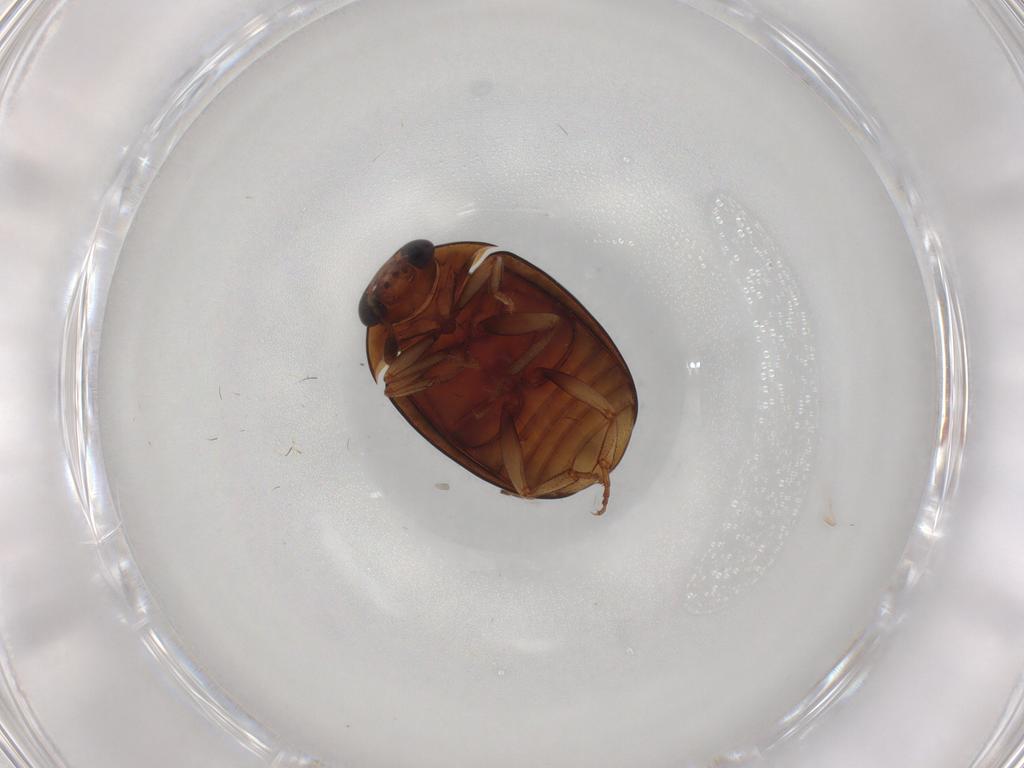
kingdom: Animalia
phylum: Arthropoda
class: Insecta
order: Coleoptera
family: Nitidulidae
